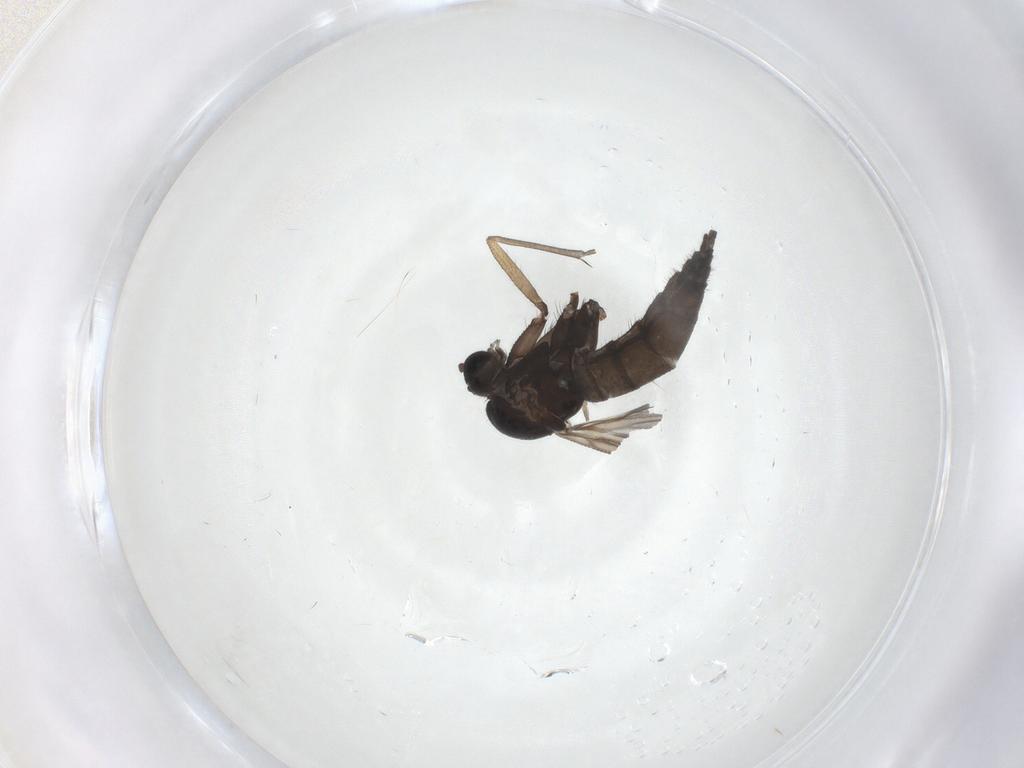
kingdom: Animalia
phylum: Arthropoda
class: Insecta
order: Diptera
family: Sciaridae
